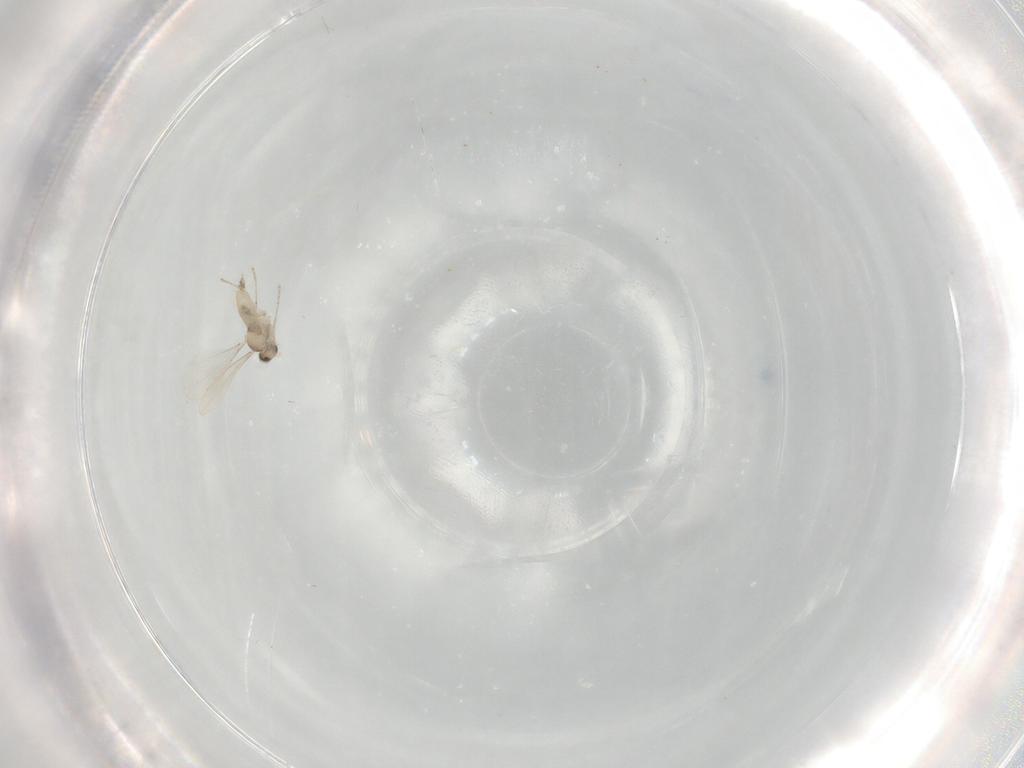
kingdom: Animalia
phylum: Arthropoda
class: Insecta
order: Diptera
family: Cecidomyiidae
